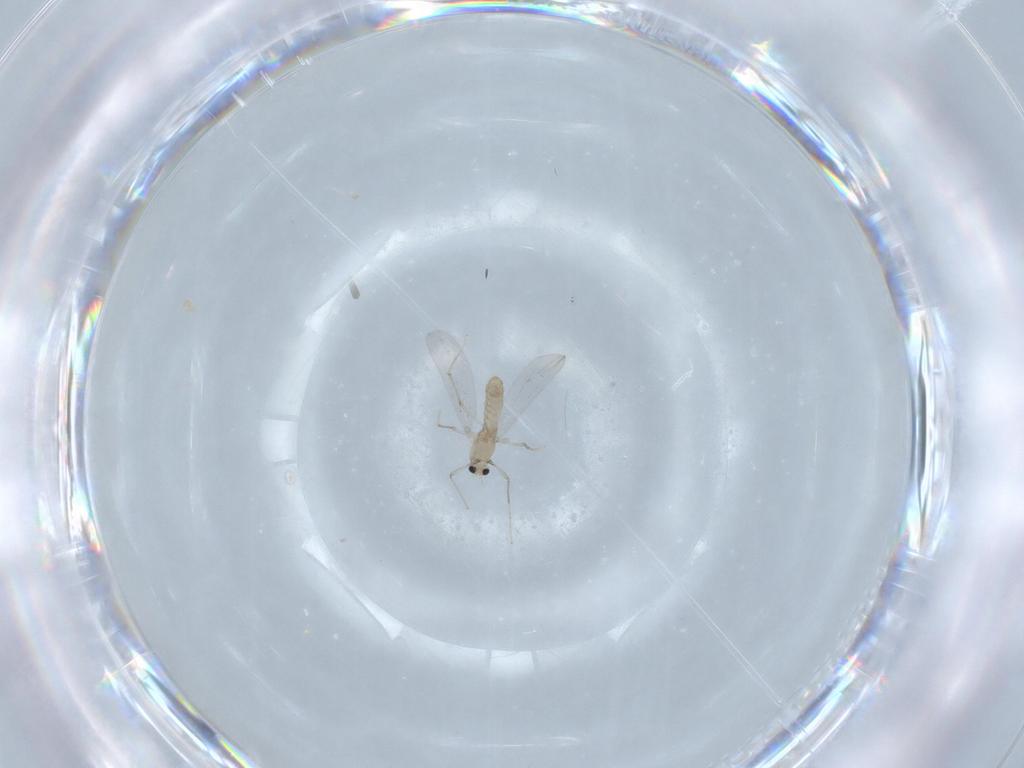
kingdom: Animalia
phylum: Arthropoda
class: Insecta
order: Diptera
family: Chironomidae
